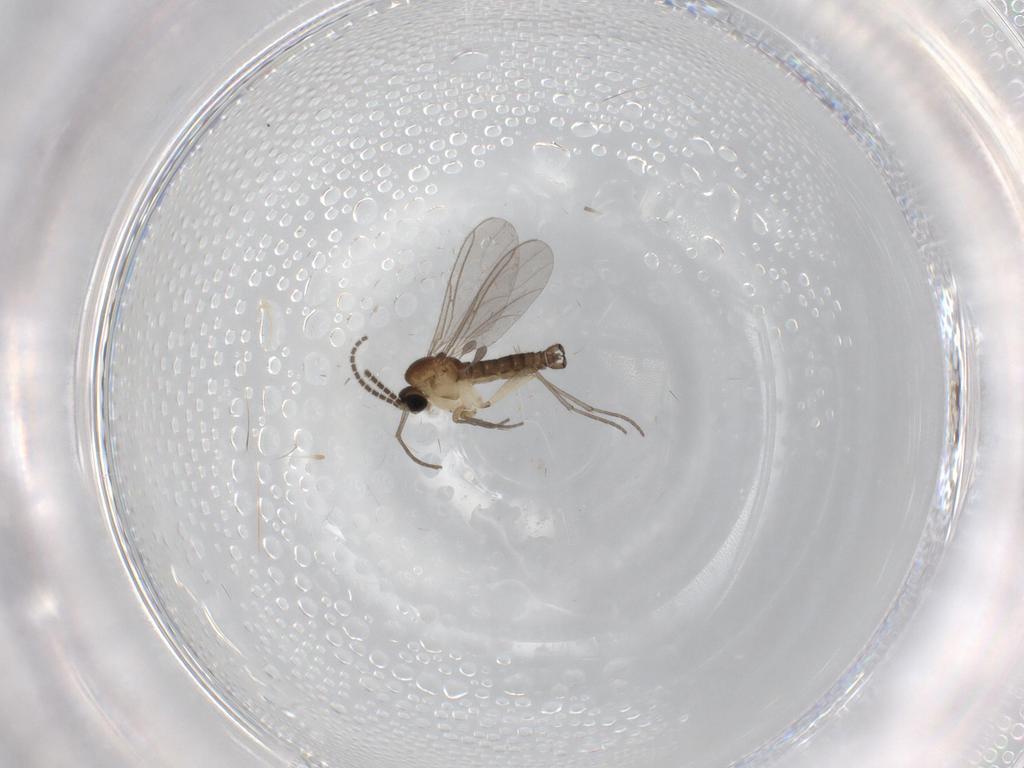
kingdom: Animalia
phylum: Arthropoda
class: Insecta
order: Diptera
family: Sciaridae
